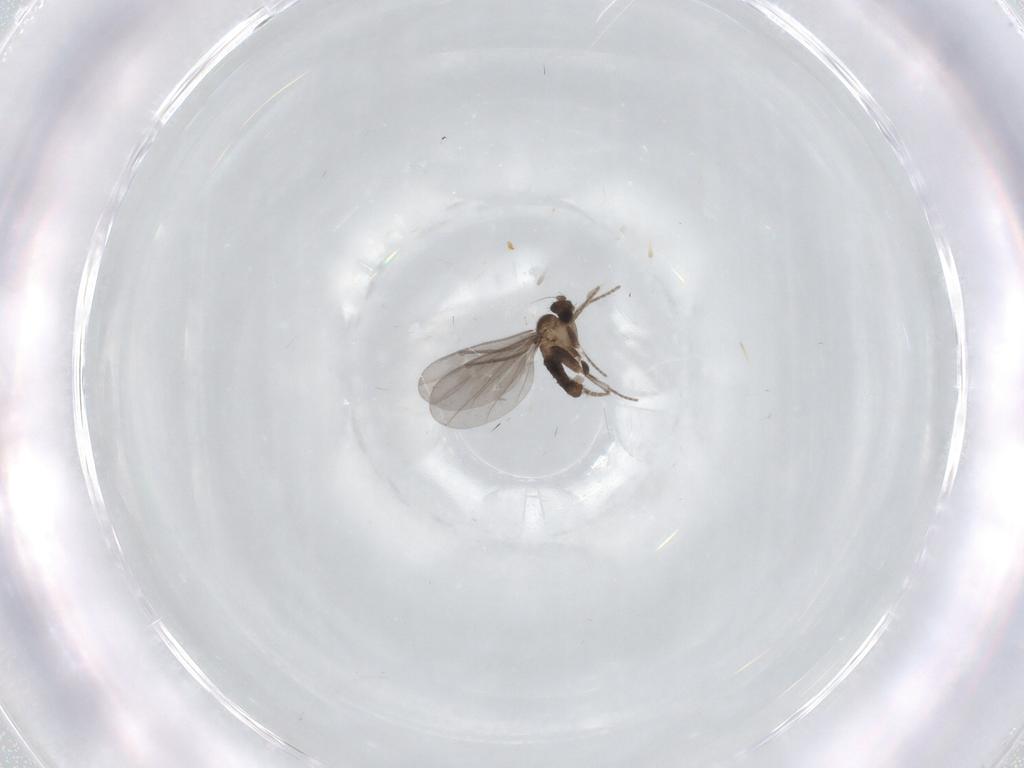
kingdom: Animalia
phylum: Arthropoda
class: Insecta
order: Diptera
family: Phoridae
